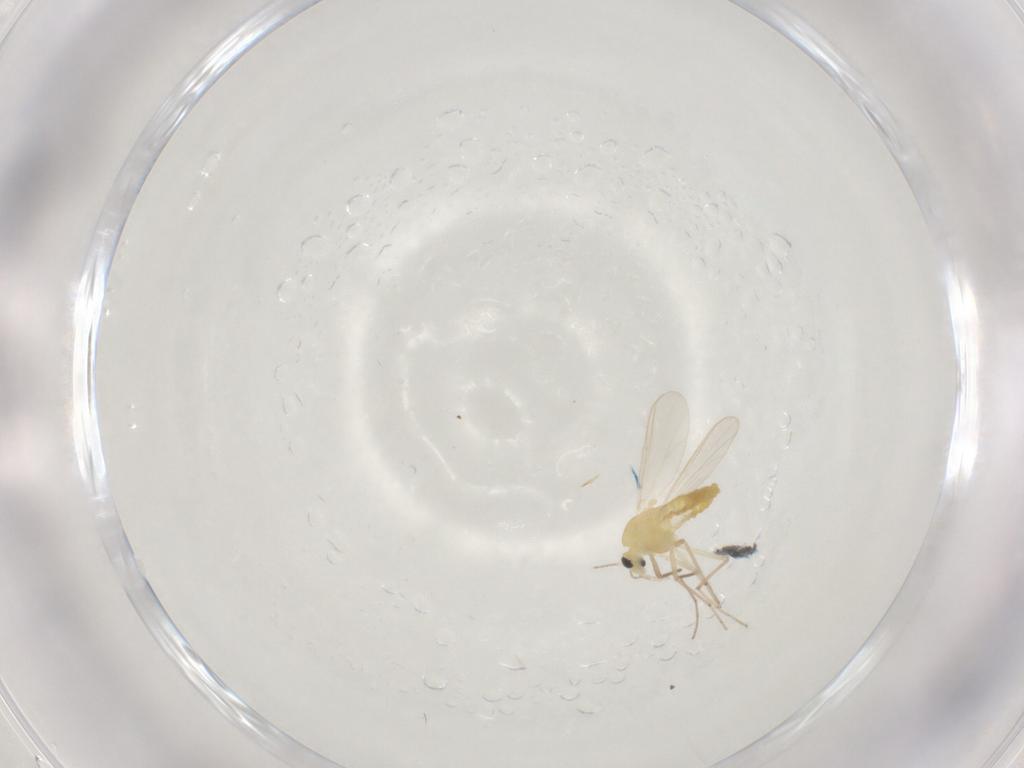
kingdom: Animalia
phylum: Arthropoda
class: Insecta
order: Diptera
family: Chironomidae
